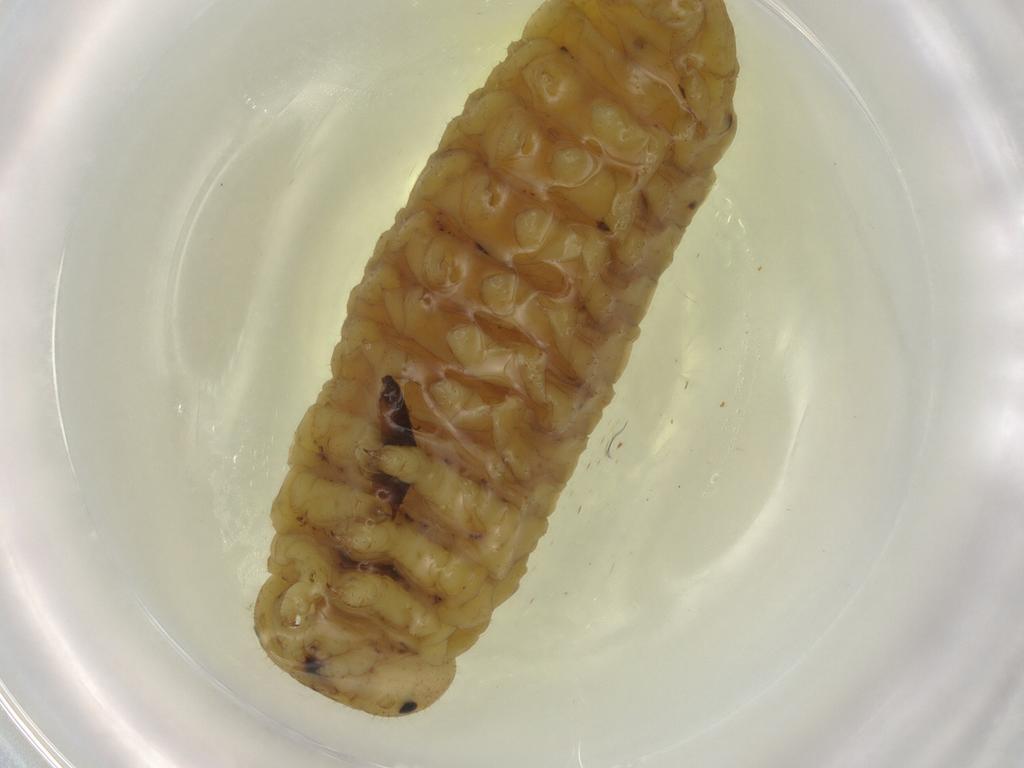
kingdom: Animalia
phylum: Arthropoda
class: Insecta
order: Hymenoptera
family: Ichneumonidae
